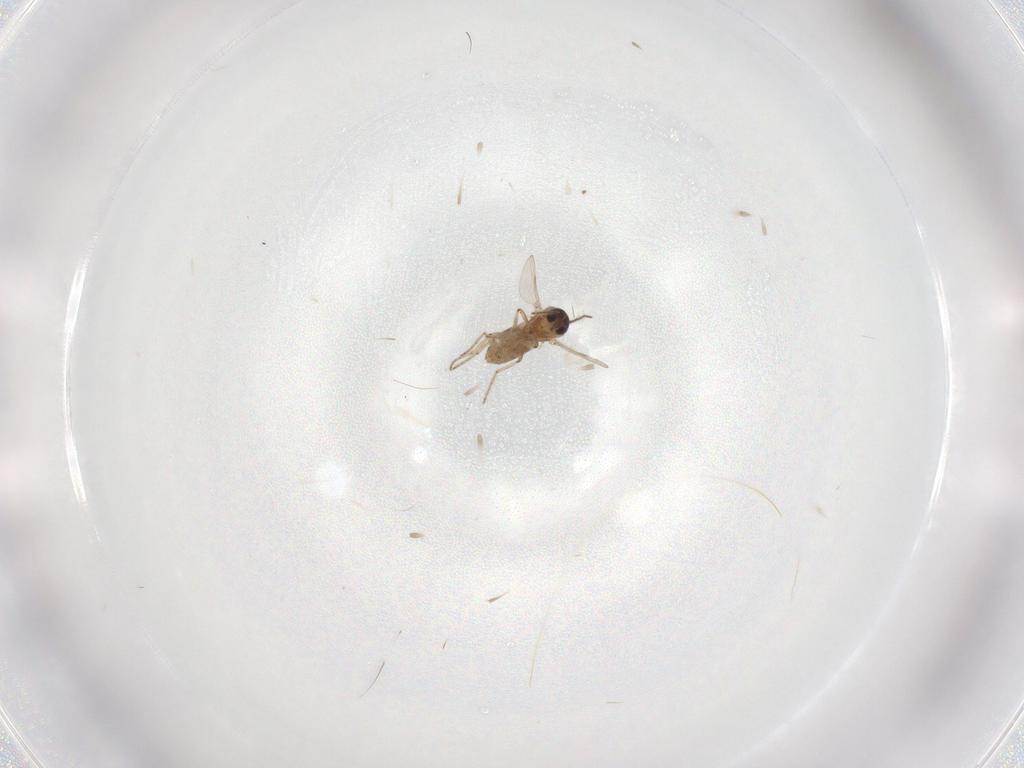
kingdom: Animalia
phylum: Arthropoda
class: Insecta
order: Diptera
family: Ceratopogonidae
